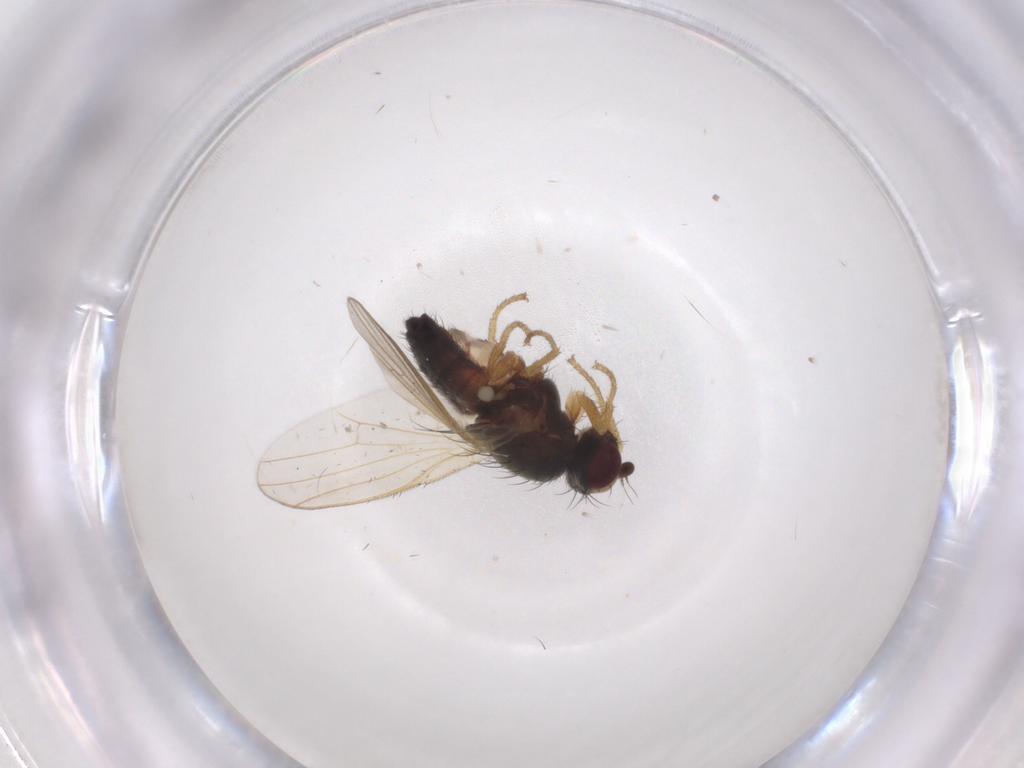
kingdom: Animalia
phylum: Arthropoda
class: Insecta
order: Diptera
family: Heleomyzidae
